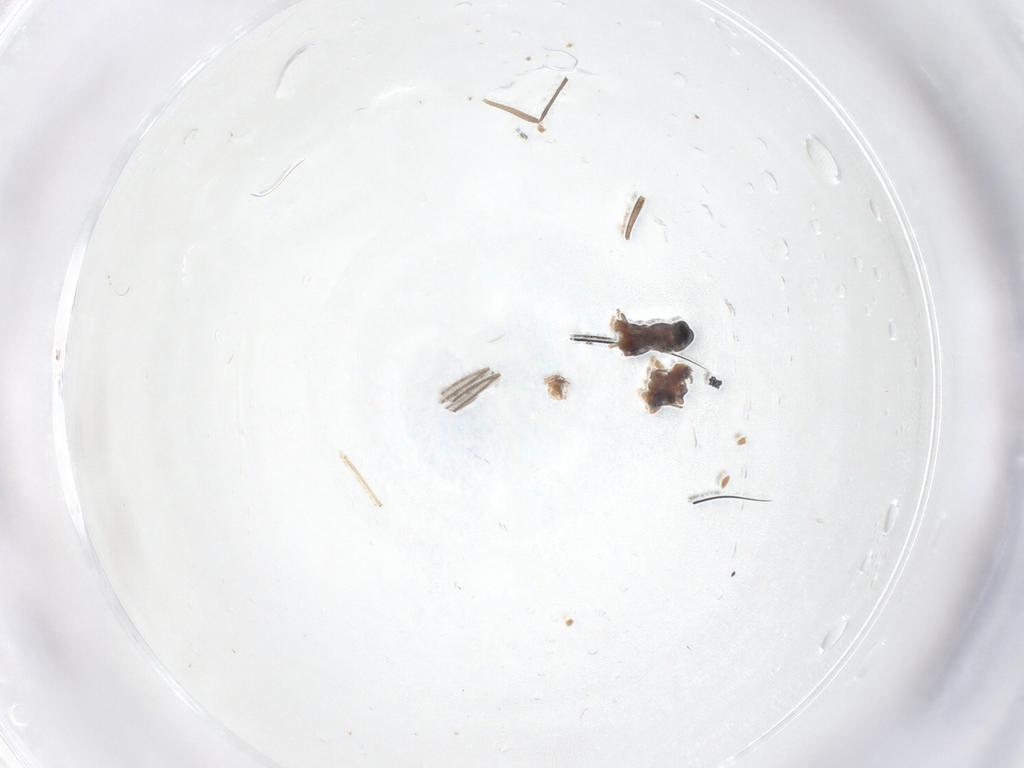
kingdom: Animalia
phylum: Arthropoda
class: Insecta
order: Diptera
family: Chironomidae
